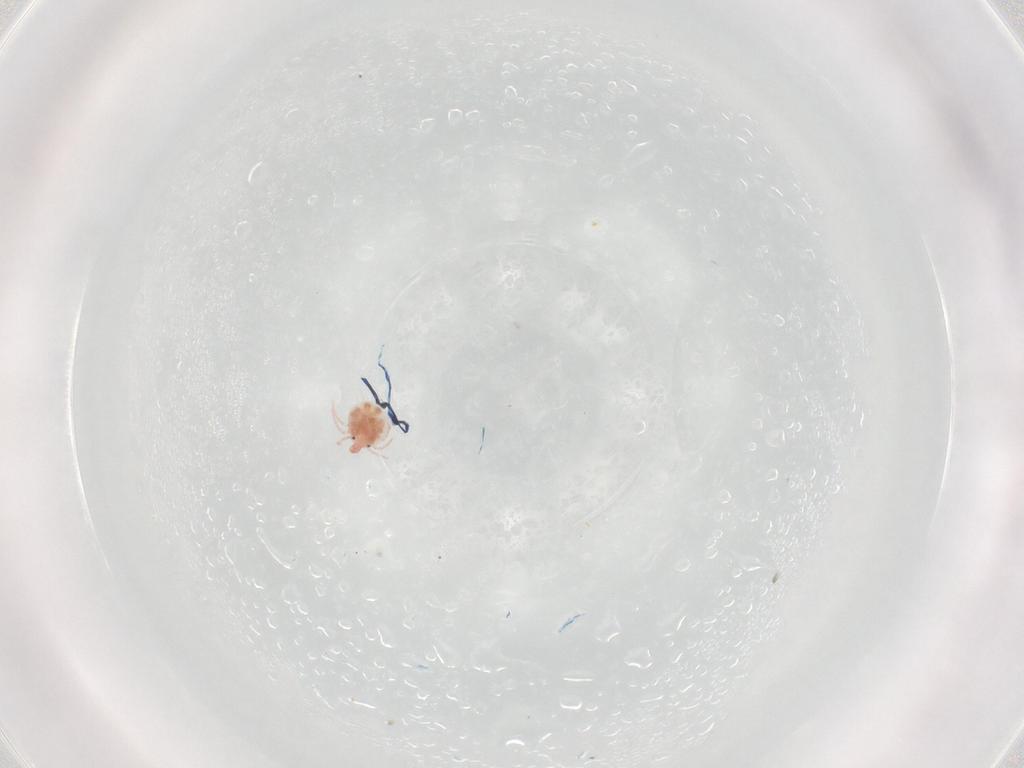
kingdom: Animalia
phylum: Arthropoda
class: Arachnida
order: Trombidiformes
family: Pionidae
